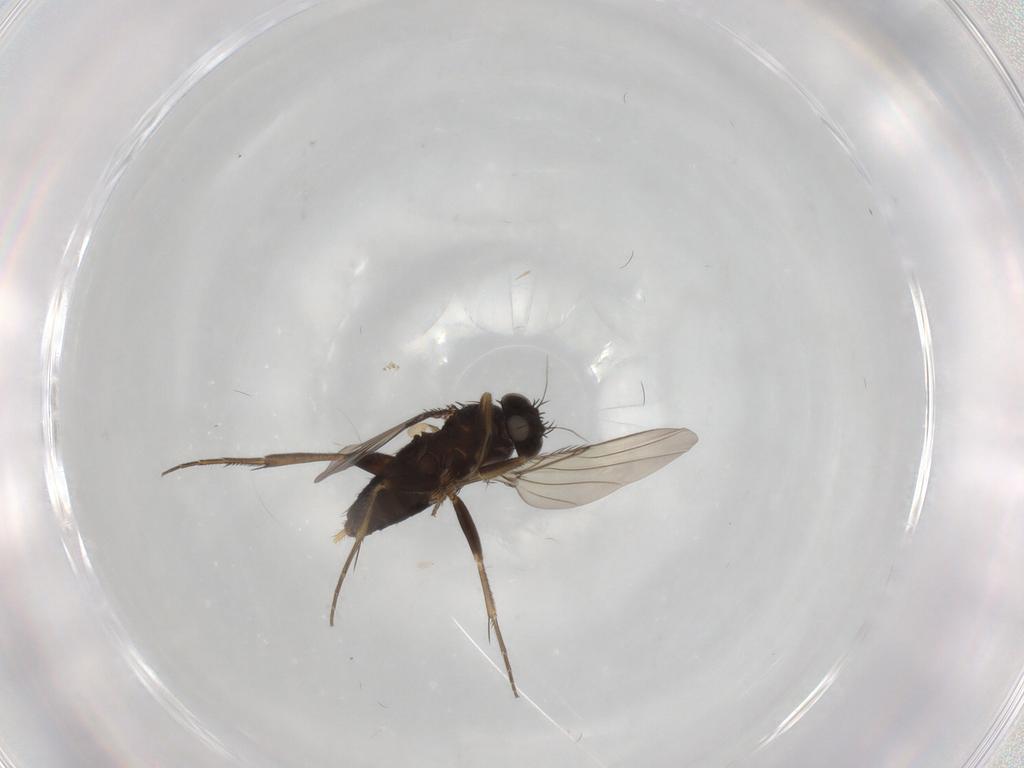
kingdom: Animalia
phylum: Arthropoda
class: Insecta
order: Diptera
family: Phoridae
